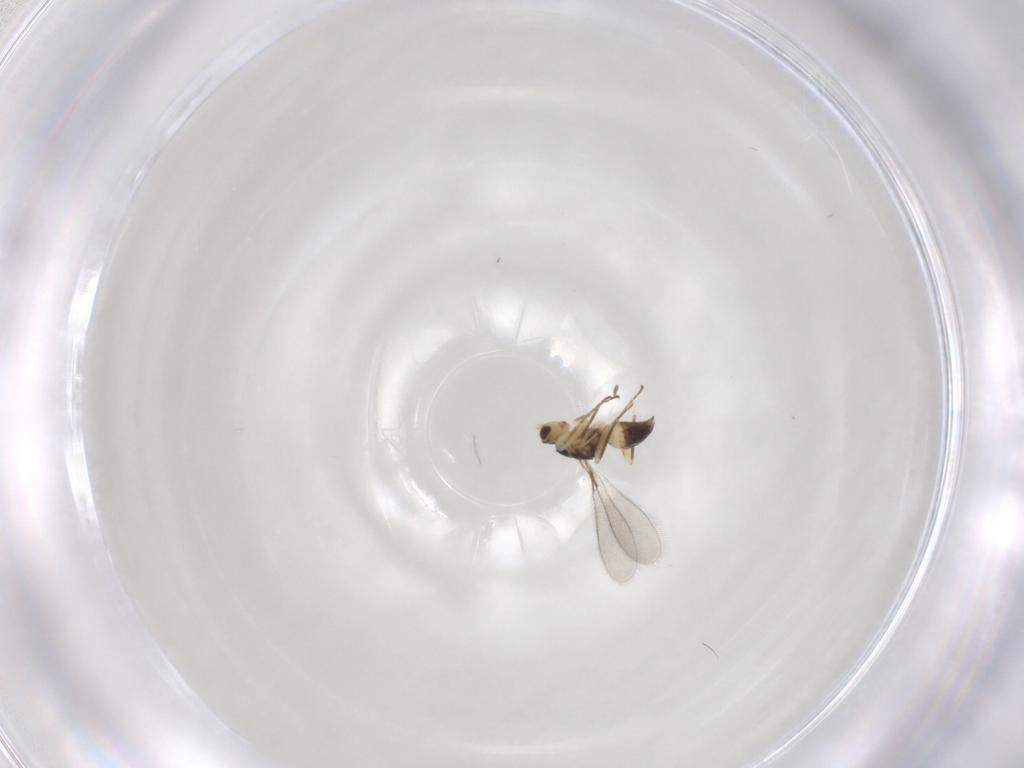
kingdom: Animalia
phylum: Arthropoda
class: Insecta
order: Hymenoptera
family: Mymaridae
